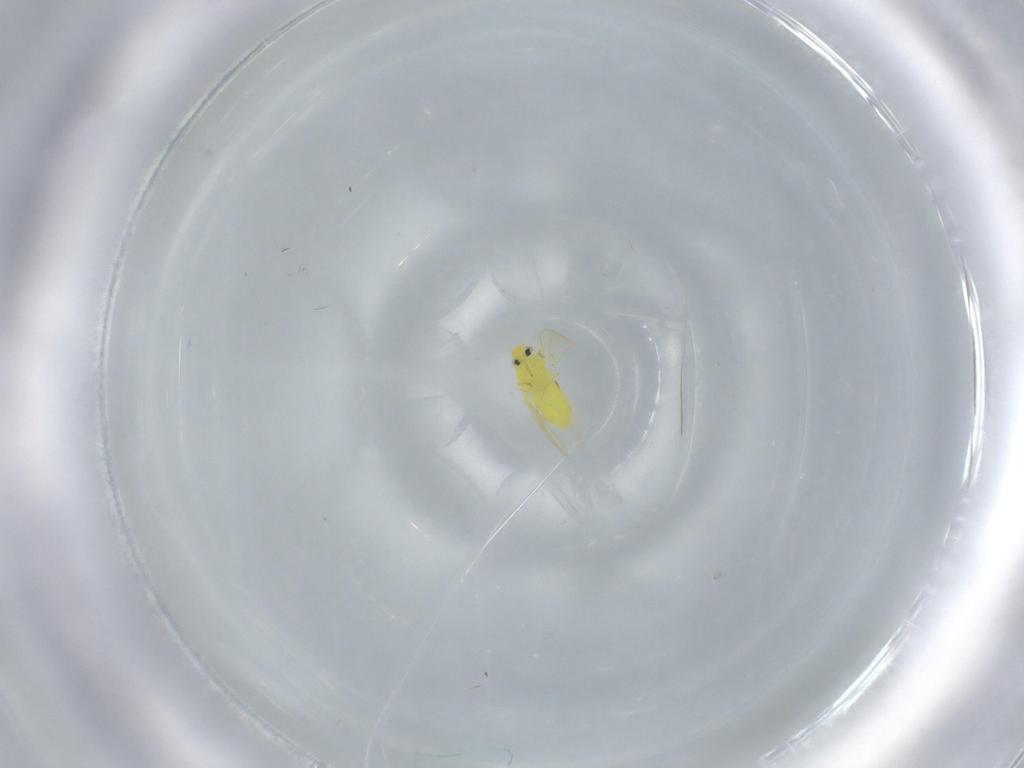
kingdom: Animalia
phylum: Arthropoda
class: Insecta
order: Hemiptera
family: Aleyrodidae
